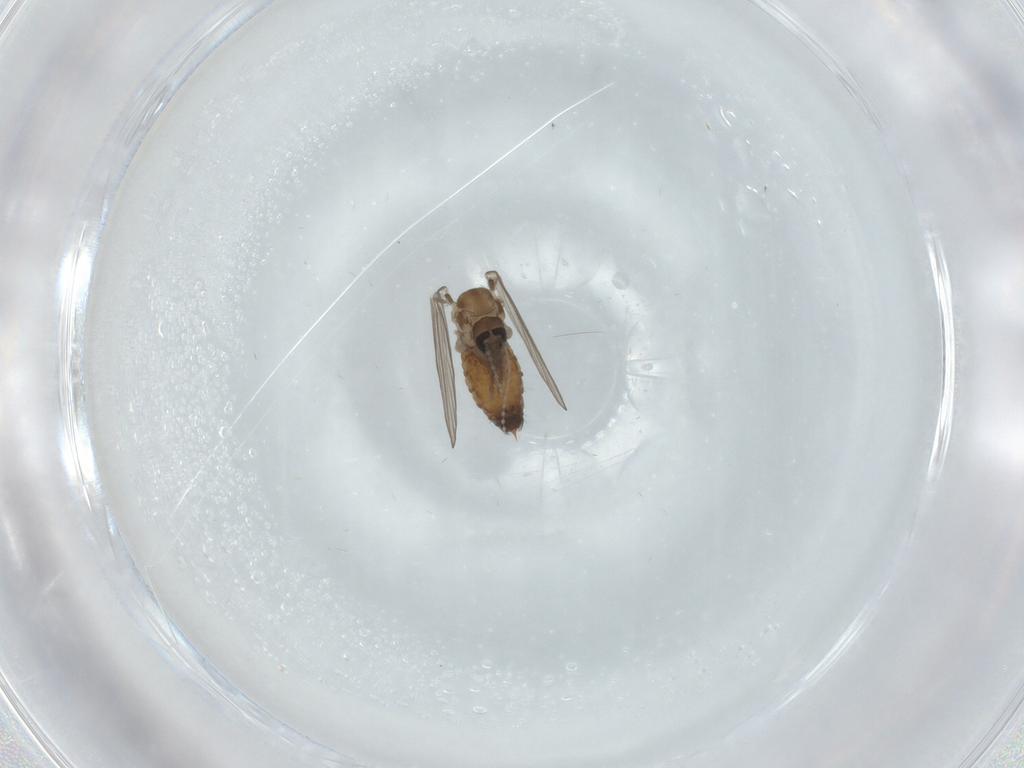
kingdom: Animalia
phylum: Arthropoda
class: Insecta
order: Diptera
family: Psychodidae
